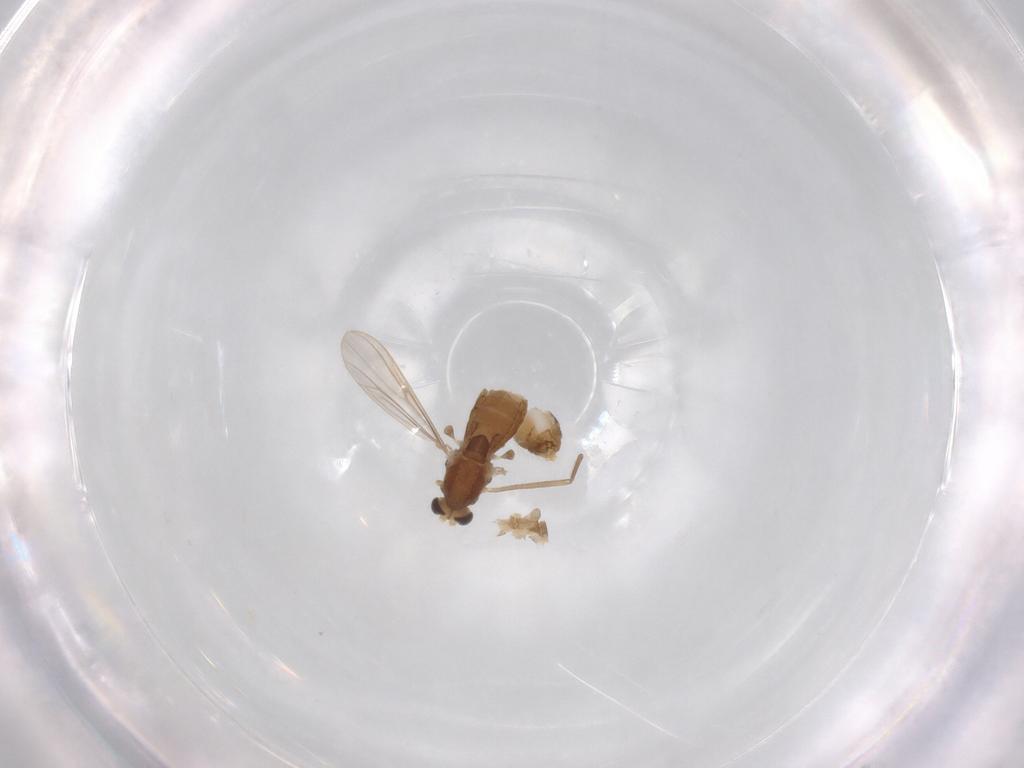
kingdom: Animalia
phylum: Arthropoda
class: Insecta
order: Diptera
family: Chironomidae
